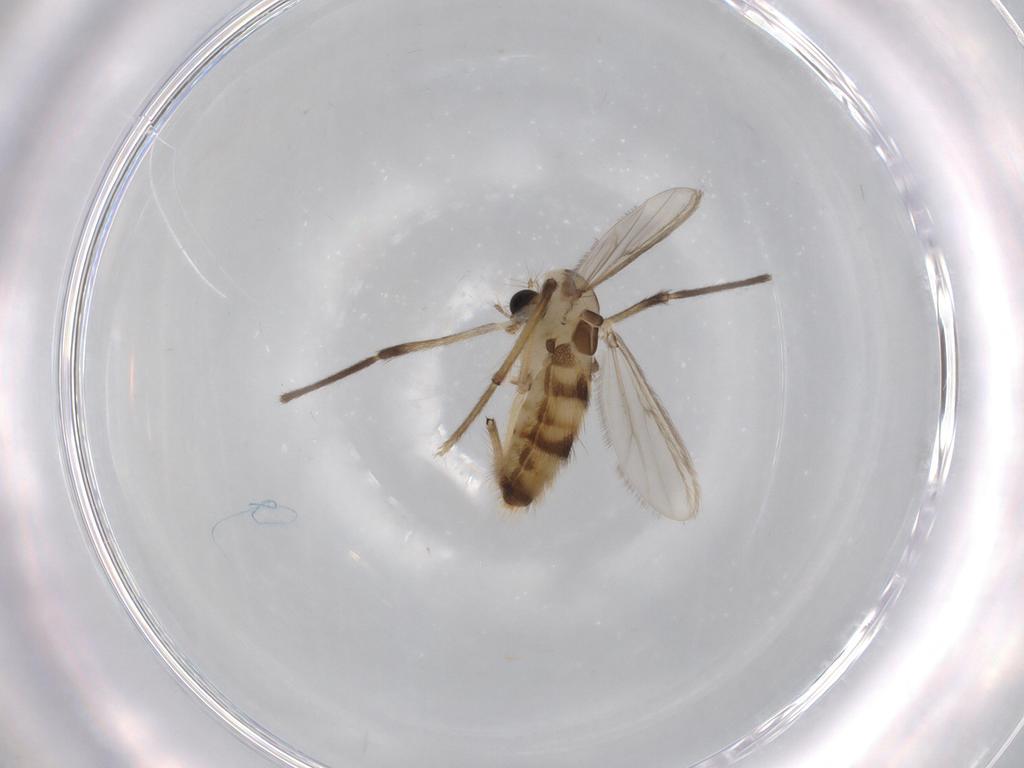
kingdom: Animalia
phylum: Arthropoda
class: Insecta
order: Diptera
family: Chironomidae
